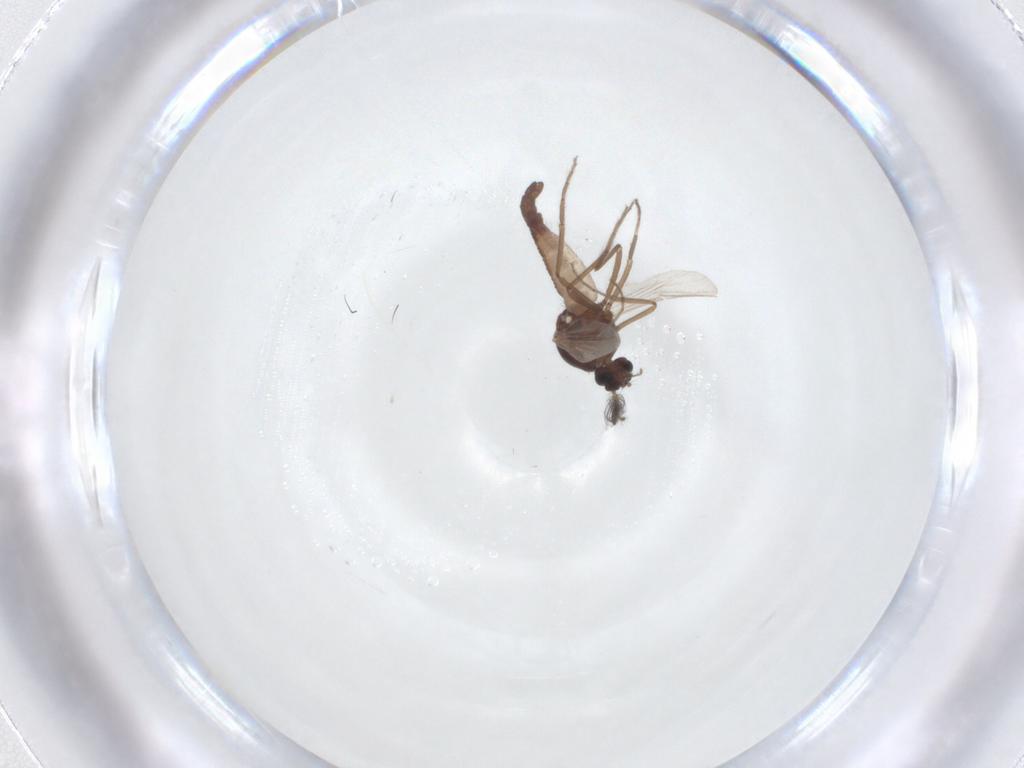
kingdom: Animalia
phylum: Arthropoda
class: Insecta
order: Diptera
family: Ceratopogonidae
